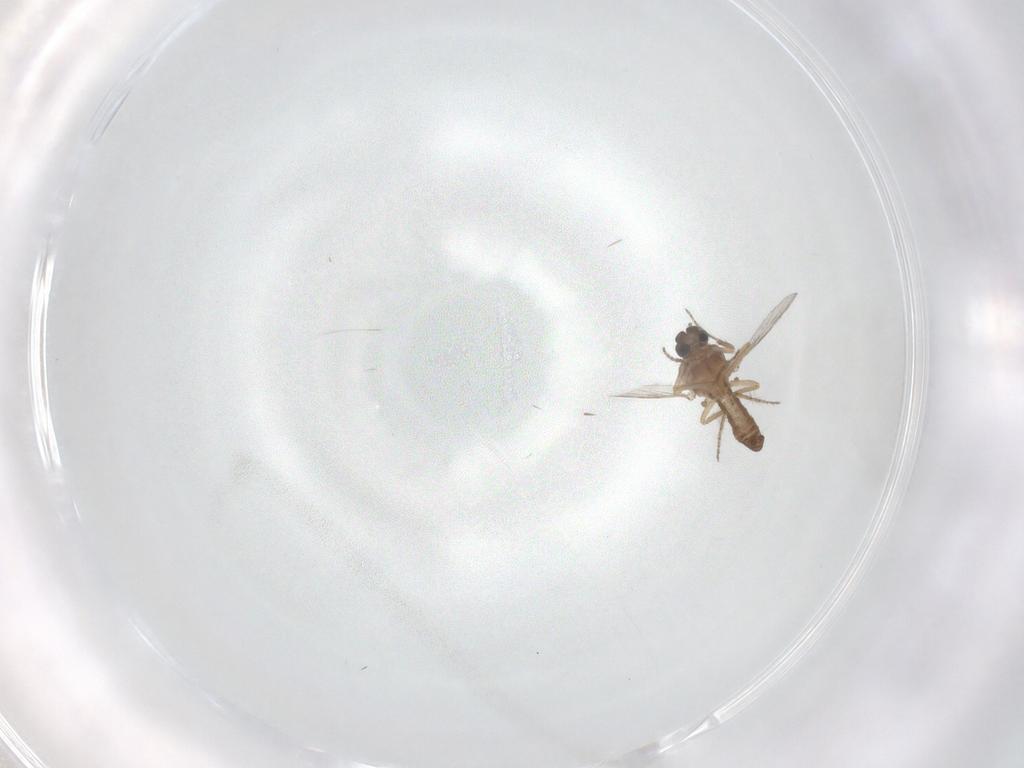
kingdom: Animalia
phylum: Arthropoda
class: Insecta
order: Diptera
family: Ceratopogonidae
